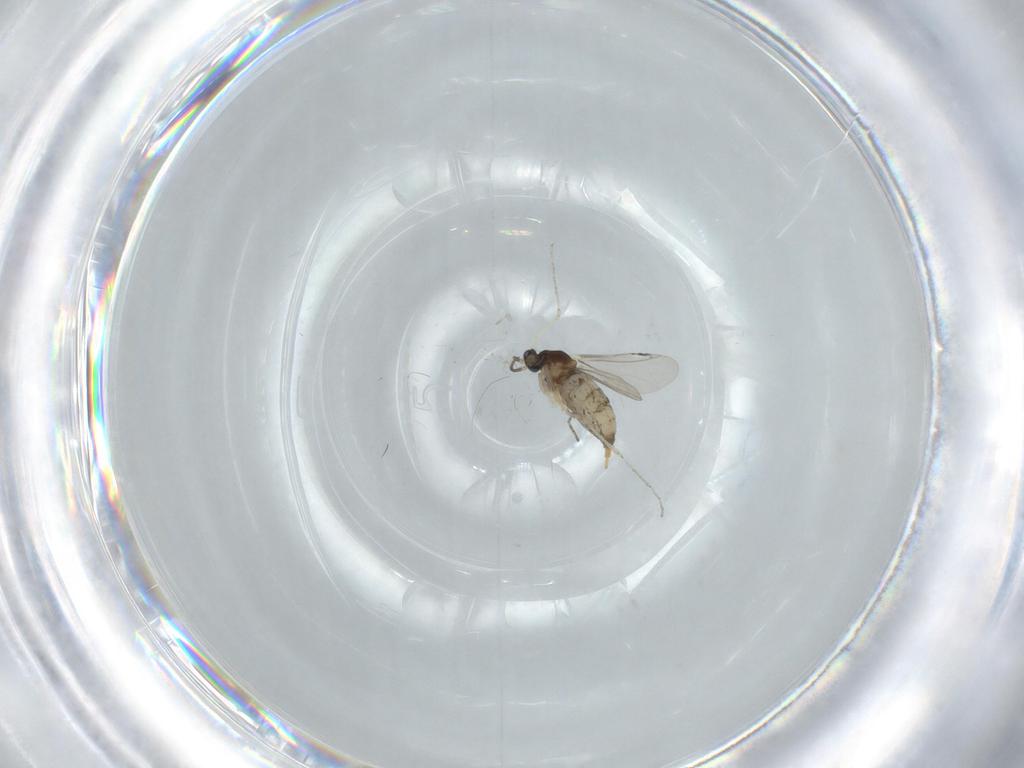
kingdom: Animalia
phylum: Arthropoda
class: Insecta
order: Diptera
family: Cecidomyiidae
